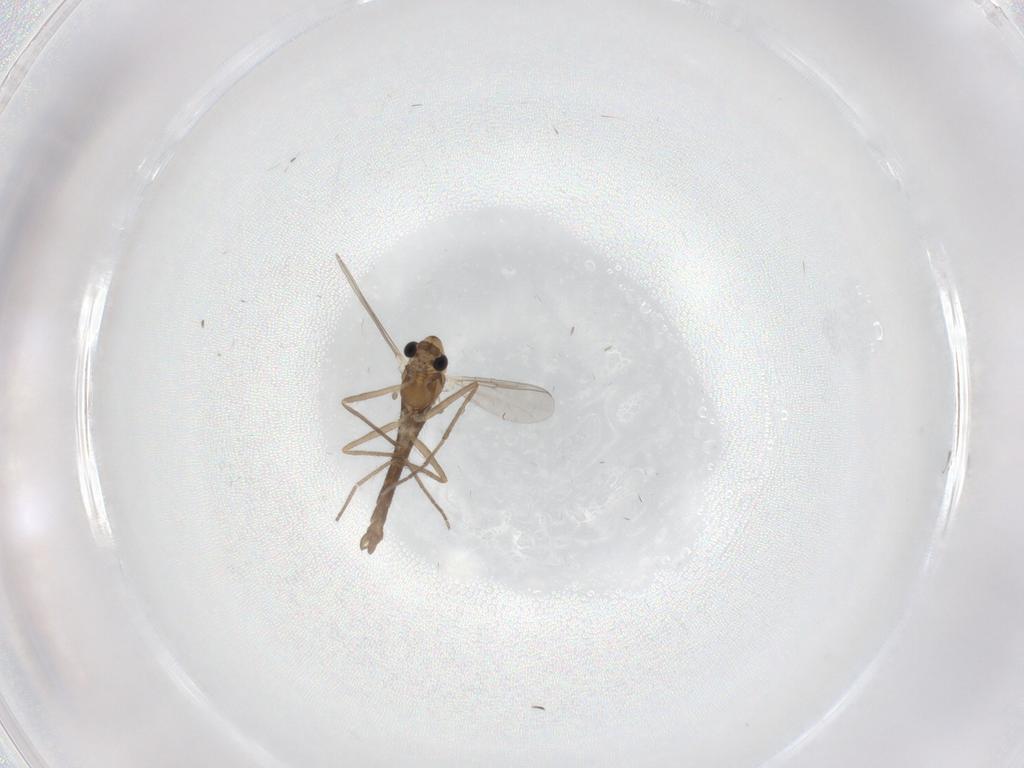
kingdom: Animalia
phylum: Arthropoda
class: Insecta
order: Diptera
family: Chironomidae
